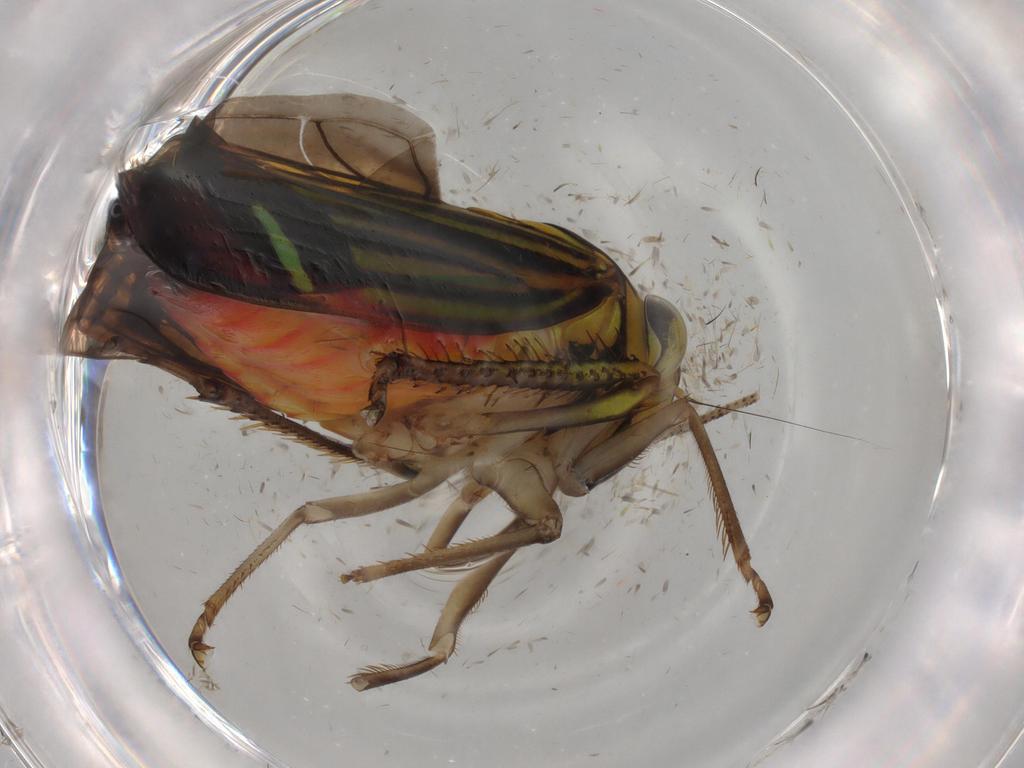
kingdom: Animalia
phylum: Arthropoda
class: Insecta
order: Hemiptera
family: Cicadellidae
